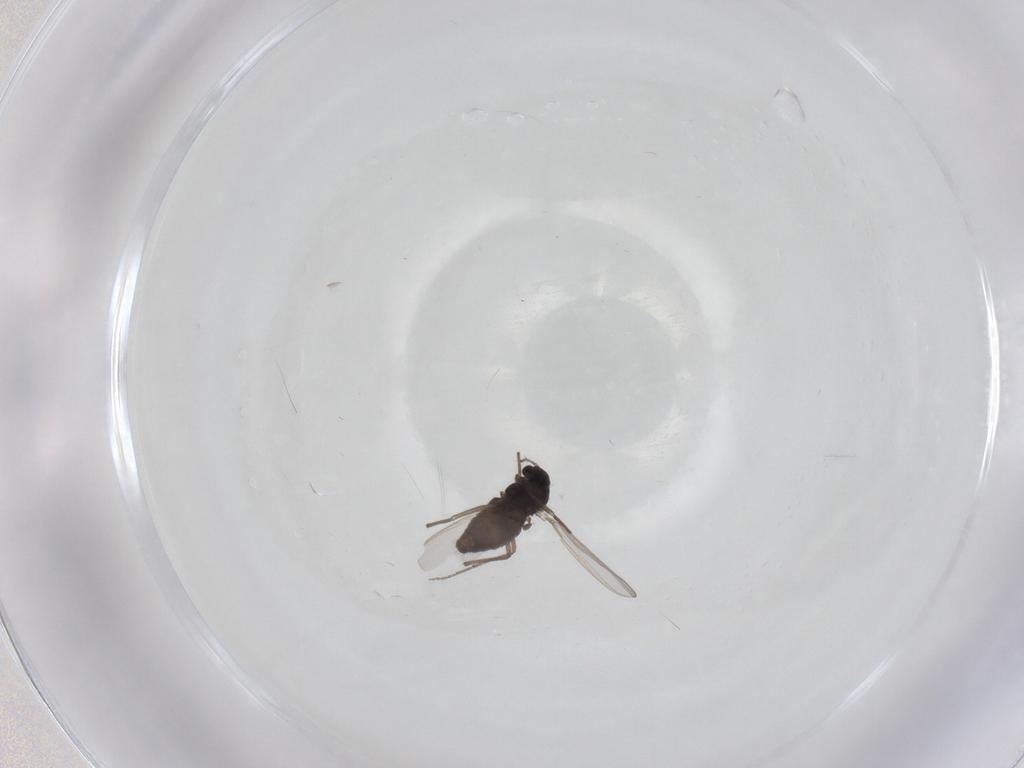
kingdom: Animalia
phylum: Arthropoda
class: Insecta
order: Diptera
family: Chironomidae
